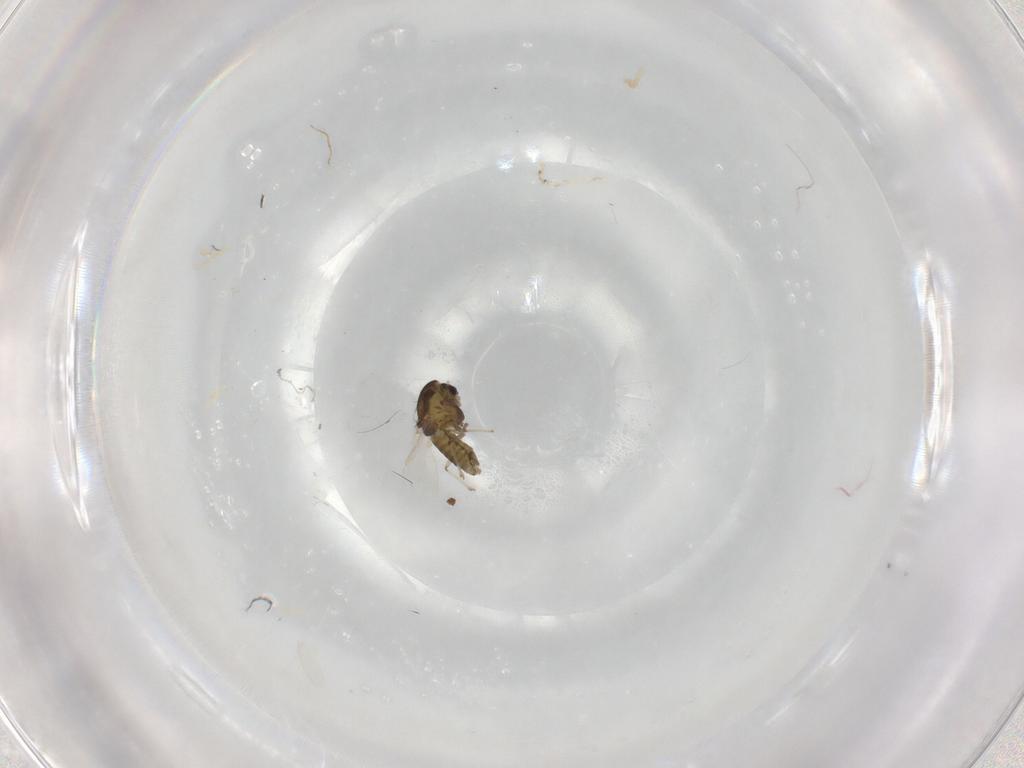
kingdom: Animalia
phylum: Arthropoda
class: Insecta
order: Diptera
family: Chironomidae
